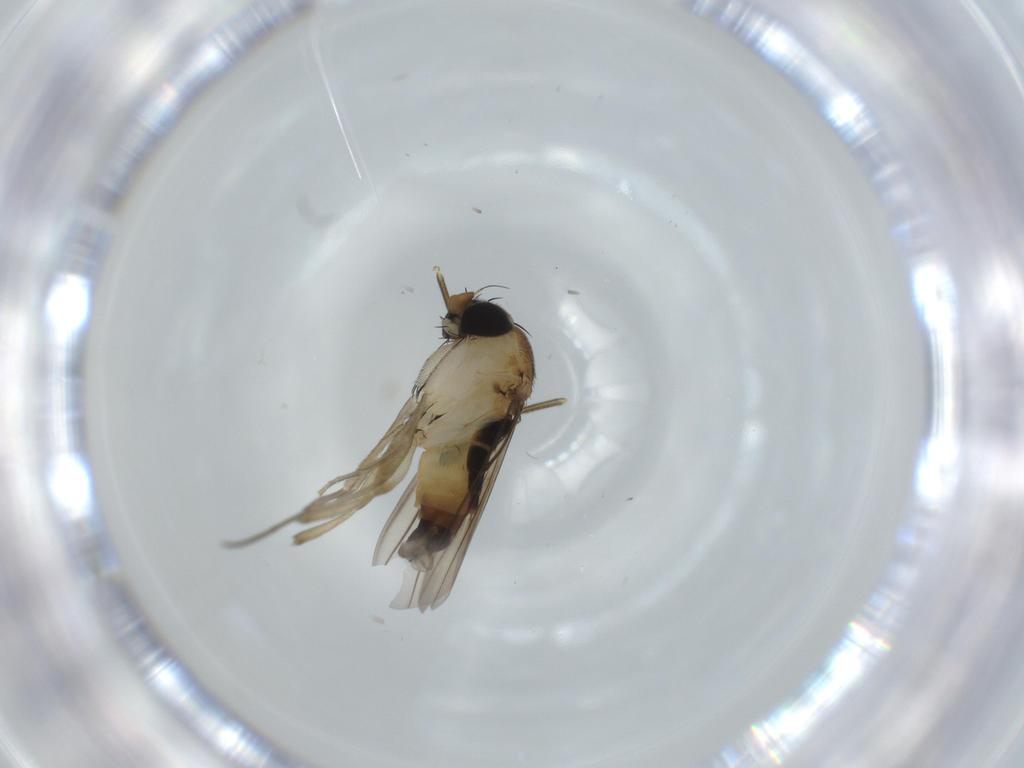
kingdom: Animalia
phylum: Arthropoda
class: Insecta
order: Diptera
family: Phoridae
